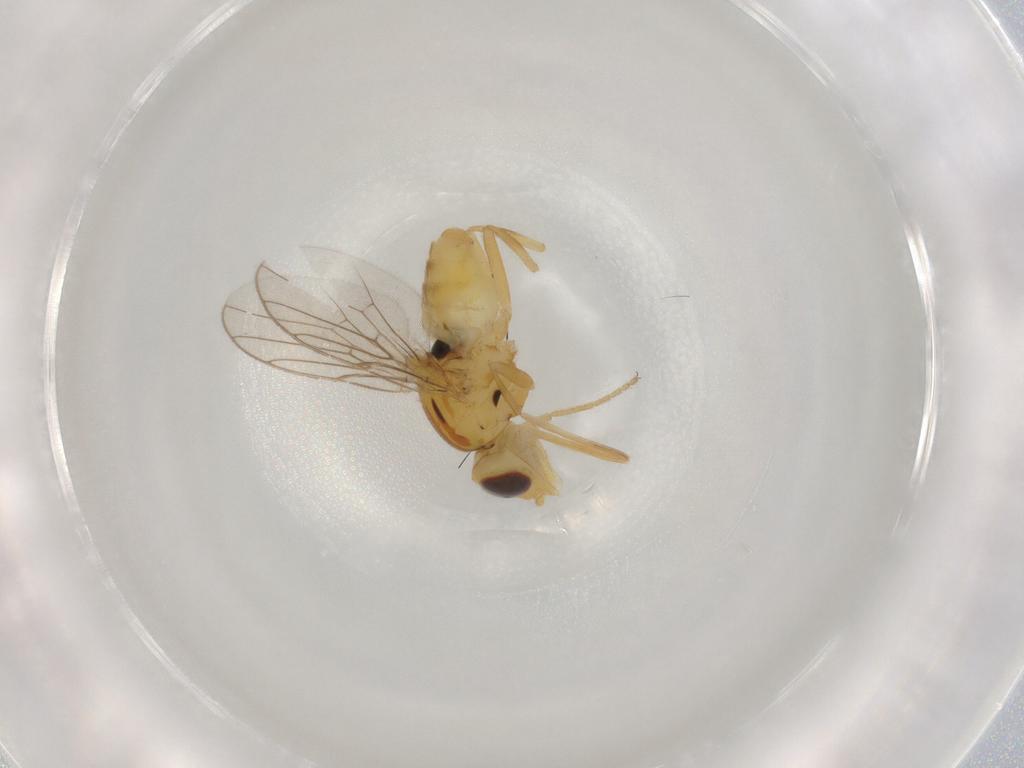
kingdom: Animalia
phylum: Arthropoda
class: Insecta
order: Diptera
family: Chloropidae
